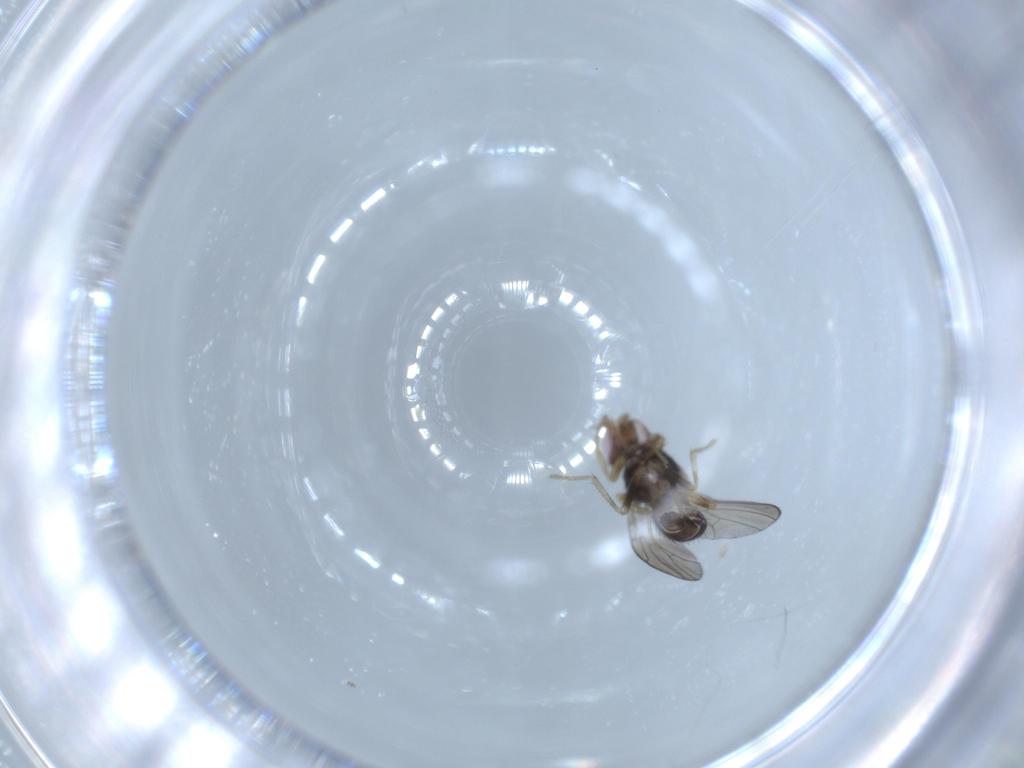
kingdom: Animalia
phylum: Arthropoda
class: Insecta
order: Diptera
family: Drosophilidae
